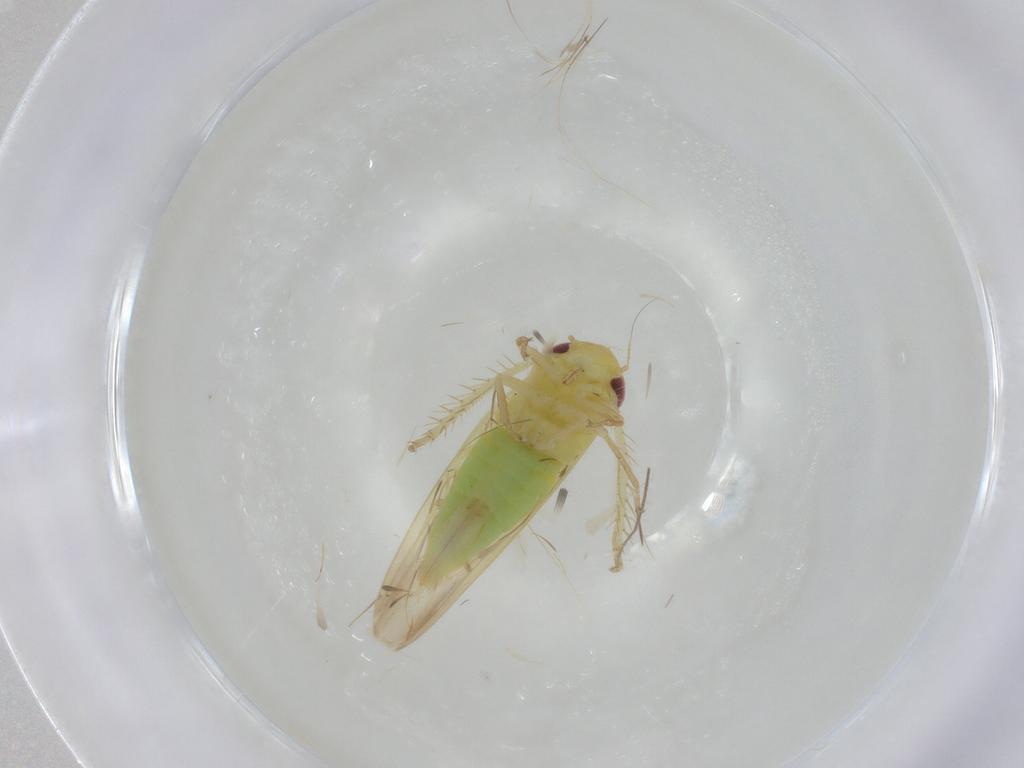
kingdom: Animalia
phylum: Arthropoda
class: Insecta
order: Hemiptera
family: Cicadellidae
